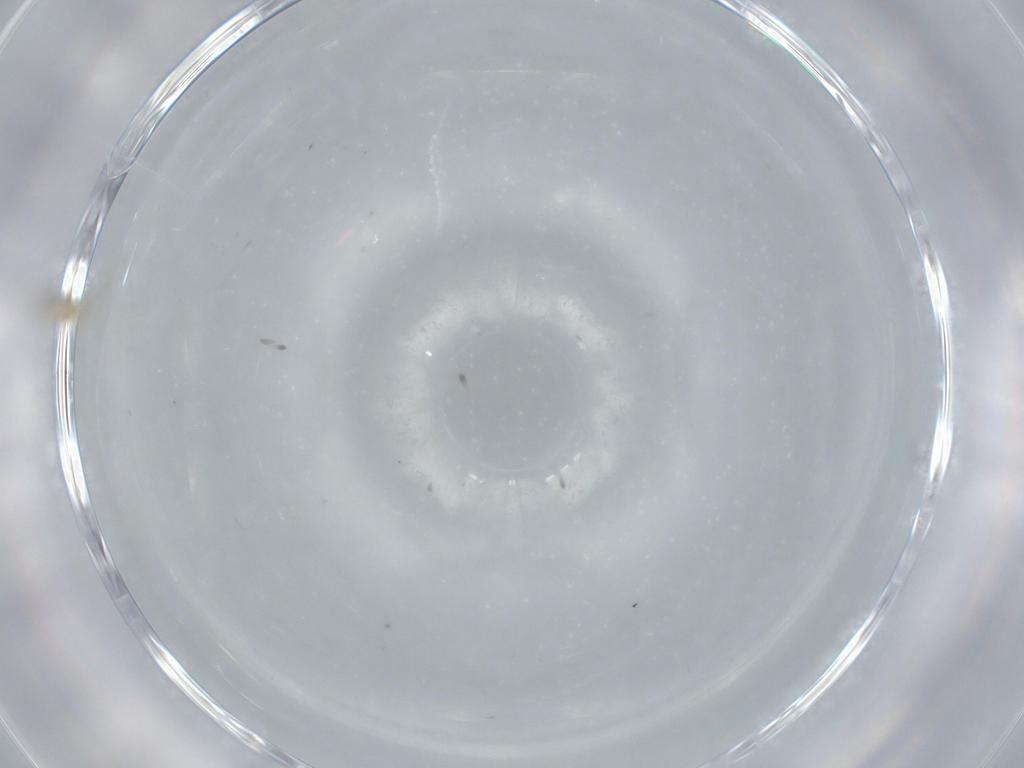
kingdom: Animalia
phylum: Arthropoda
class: Insecta
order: Psocodea
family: Liposcelididae
